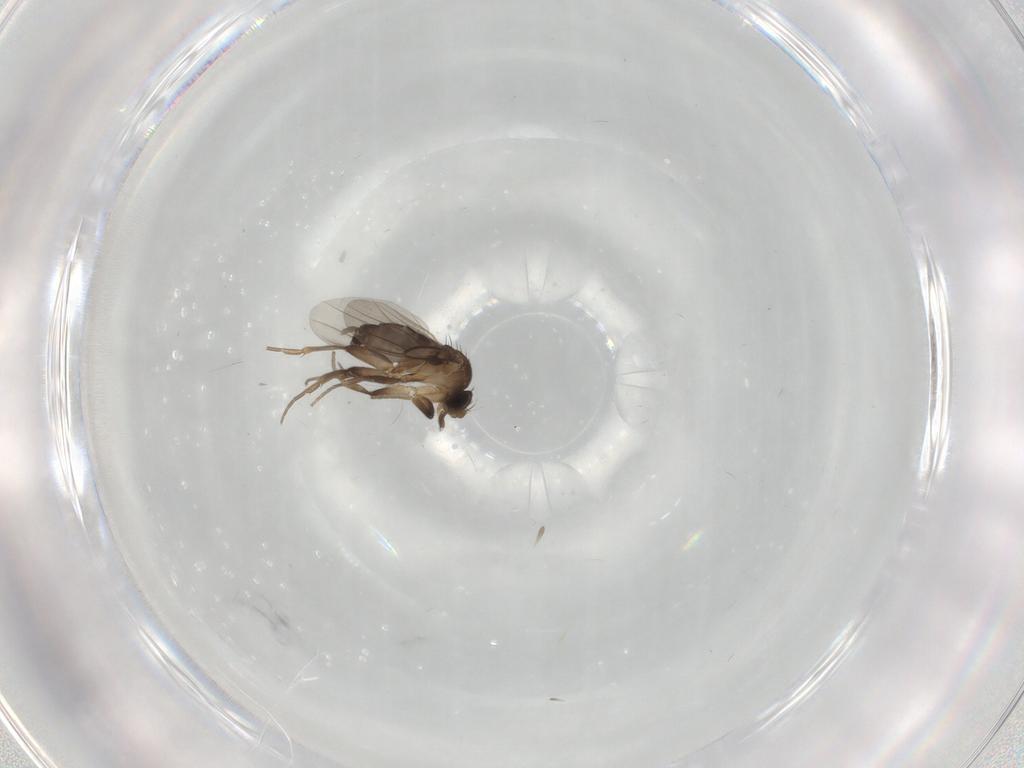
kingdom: Animalia
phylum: Arthropoda
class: Insecta
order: Diptera
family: Phoridae
